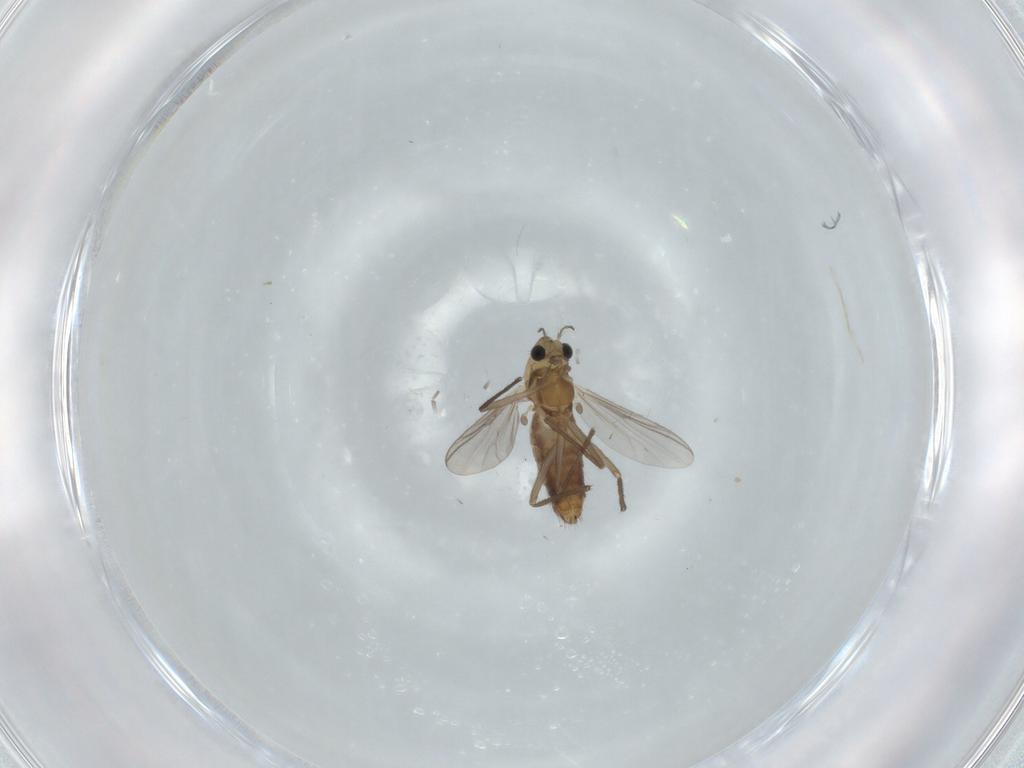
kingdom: Animalia
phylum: Arthropoda
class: Insecta
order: Diptera
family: Chironomidae
